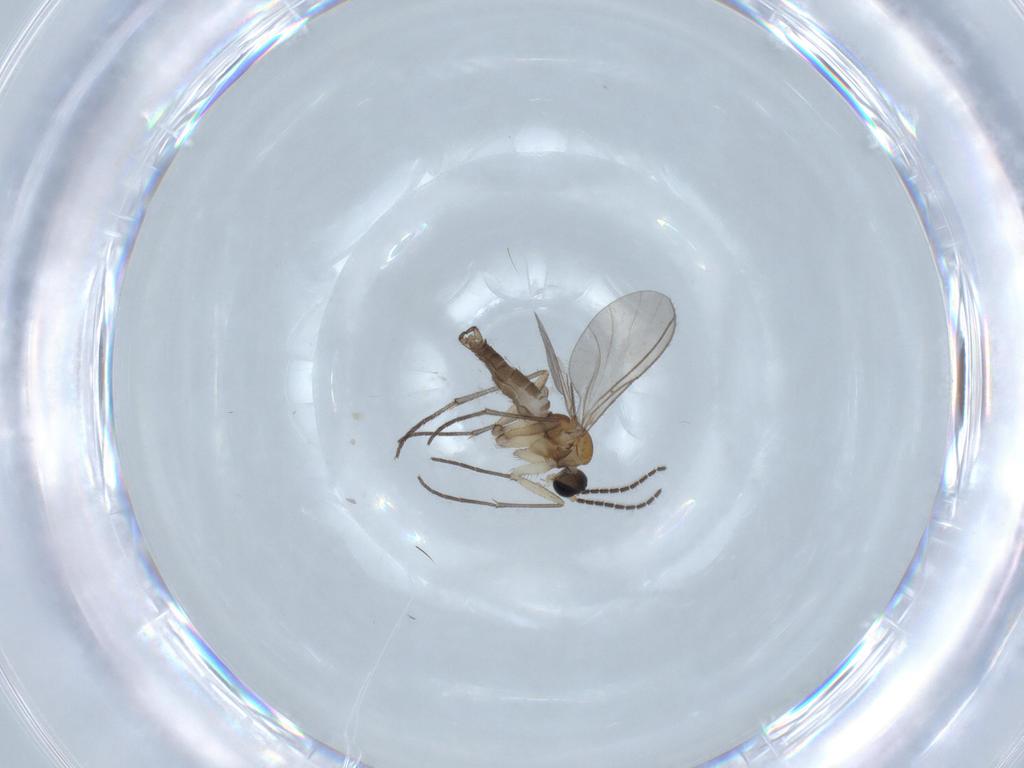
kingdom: Animalia
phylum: Arthropoda
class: Insecta
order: Diptera
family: Sciaridae
